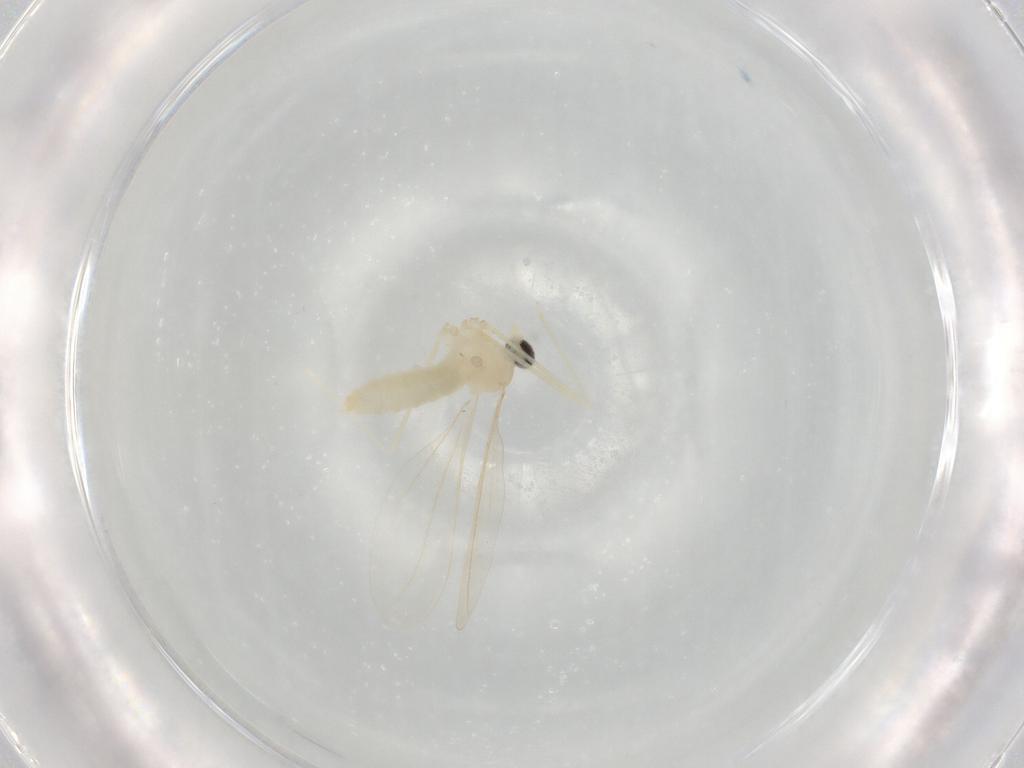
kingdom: Animalia
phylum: Arthropoda
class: Insecta
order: Diptera
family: Cecidomyiidae
